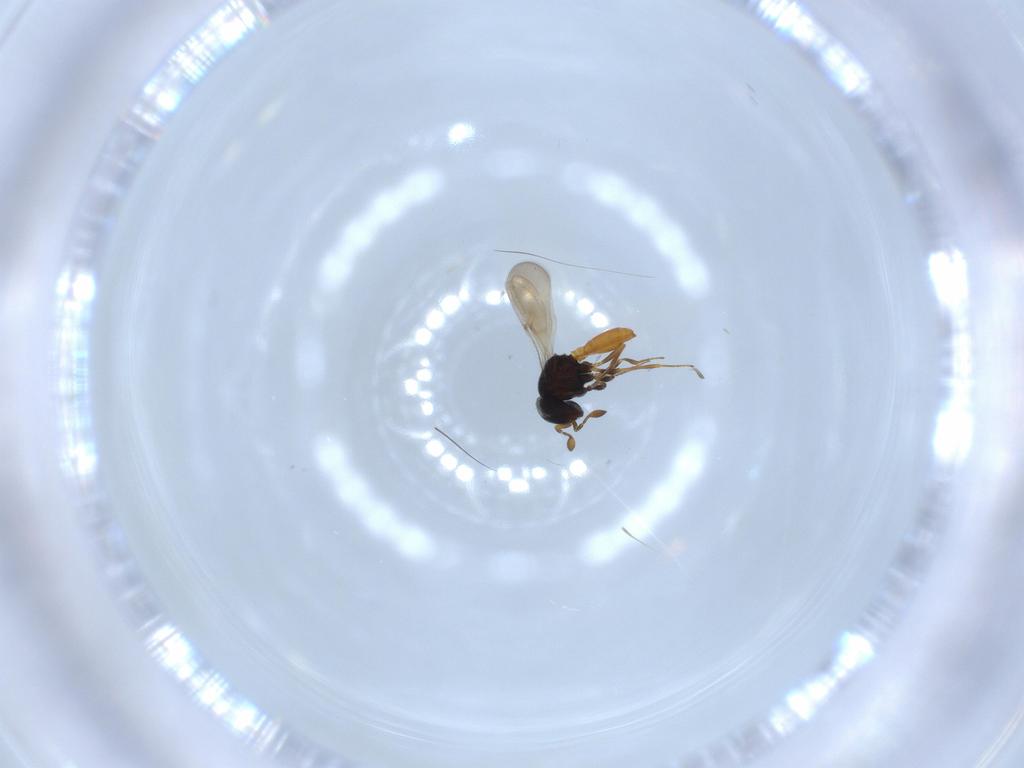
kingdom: Animalia
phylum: Arthropoda
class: Insecta
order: Hymenoptera
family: Scelionidae
